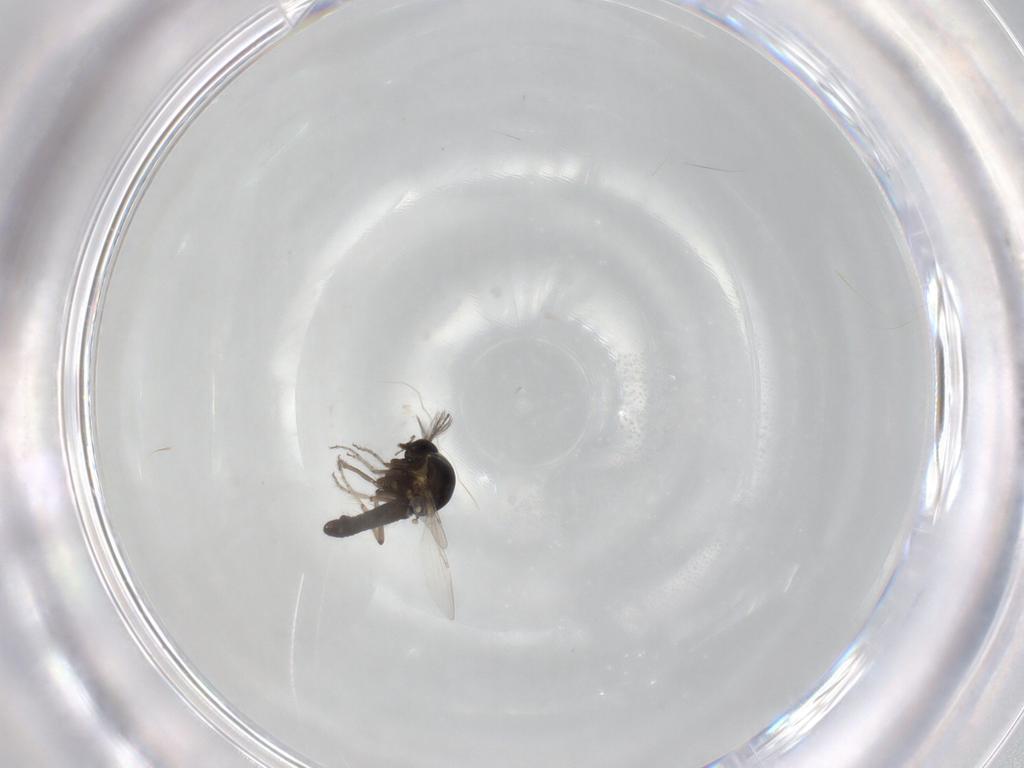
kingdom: Animalia
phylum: Arthropoda
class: Insecta
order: Diptera
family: Ceratopogonidae
